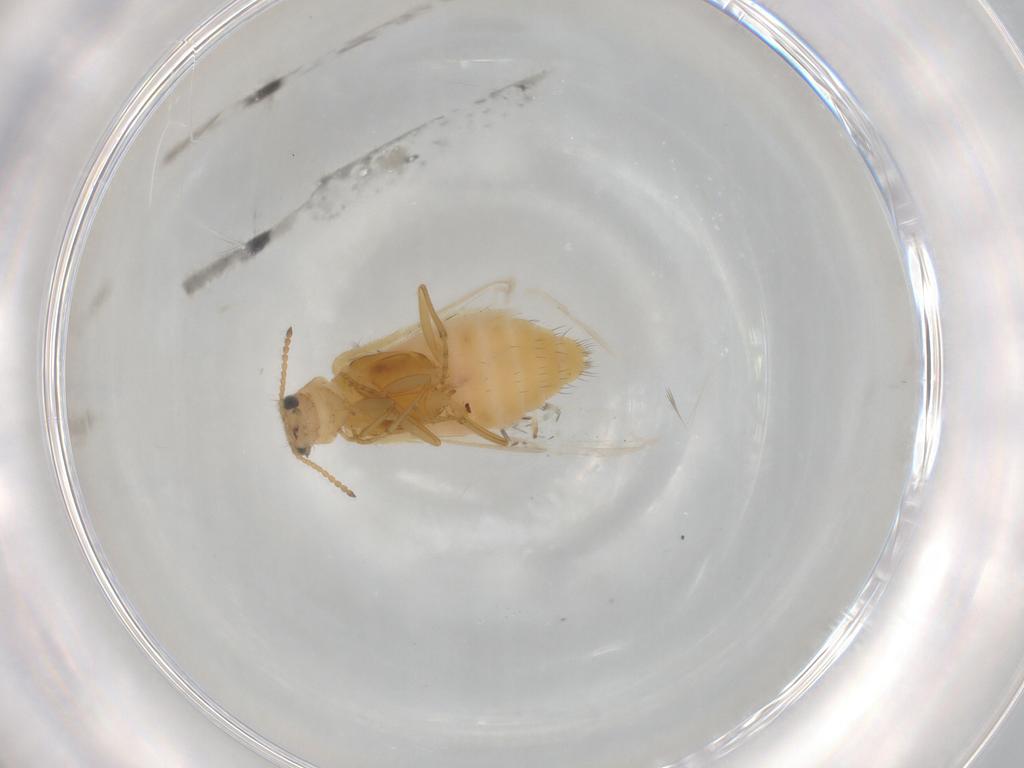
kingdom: Animalia
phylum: Arthropoda
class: Insecta
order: Coleoptera
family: Dasytidae
